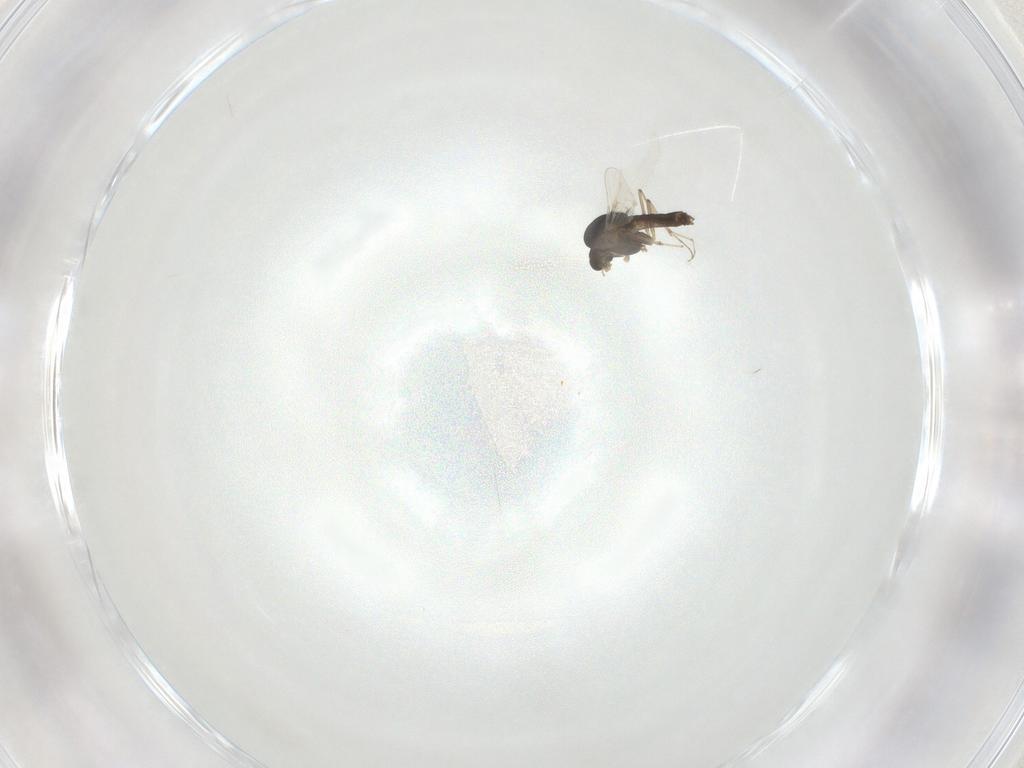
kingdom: Animalia
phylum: Arthropoda
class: Insecta
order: Diptera
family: Chironomidae
